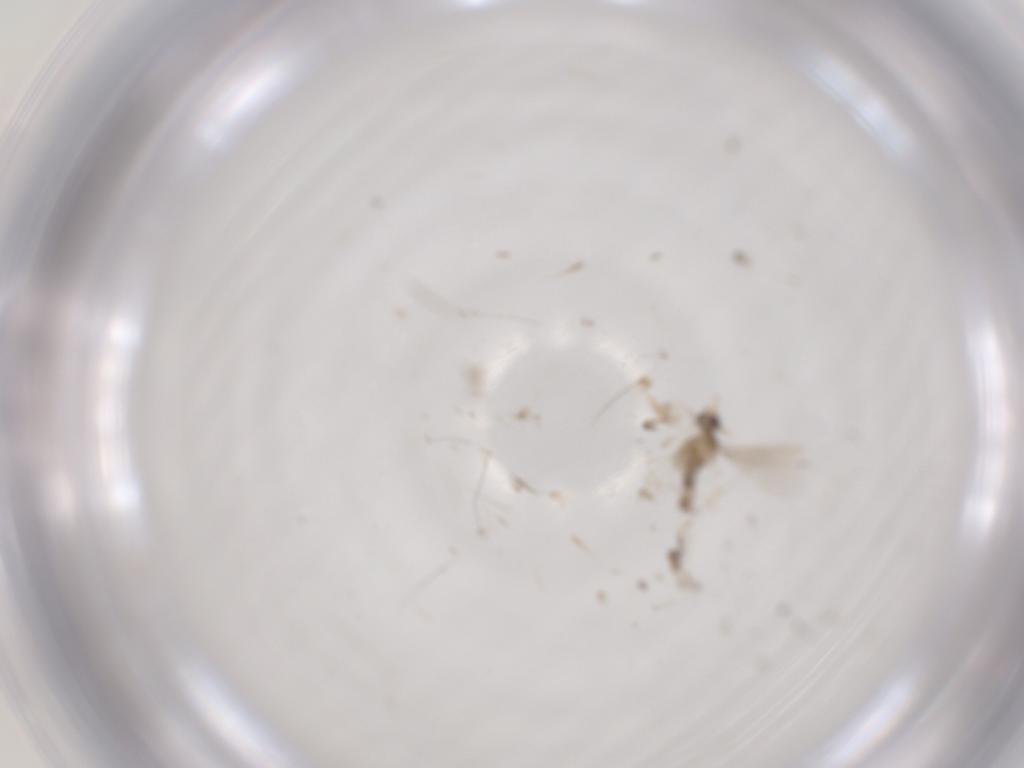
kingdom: Animalia
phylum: Arthropoda
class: Insecta
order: Diptera
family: Cecidomyiidae
